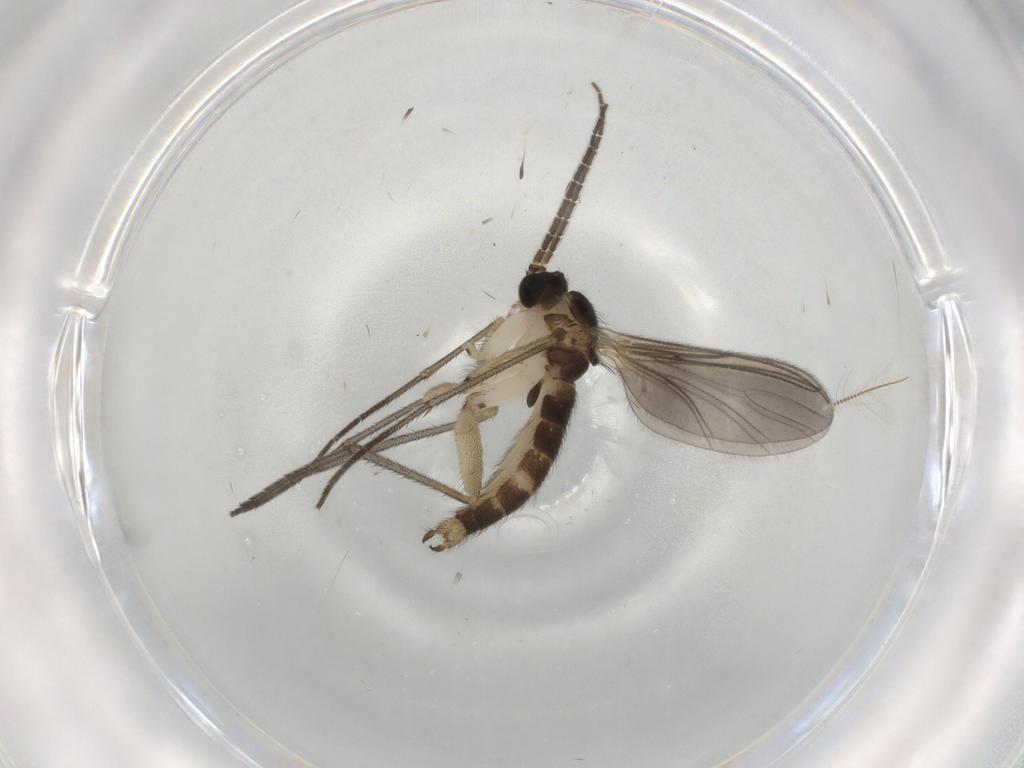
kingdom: Animalia
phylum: Arthropoda
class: Insecta
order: Diptera
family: Sciaridae
